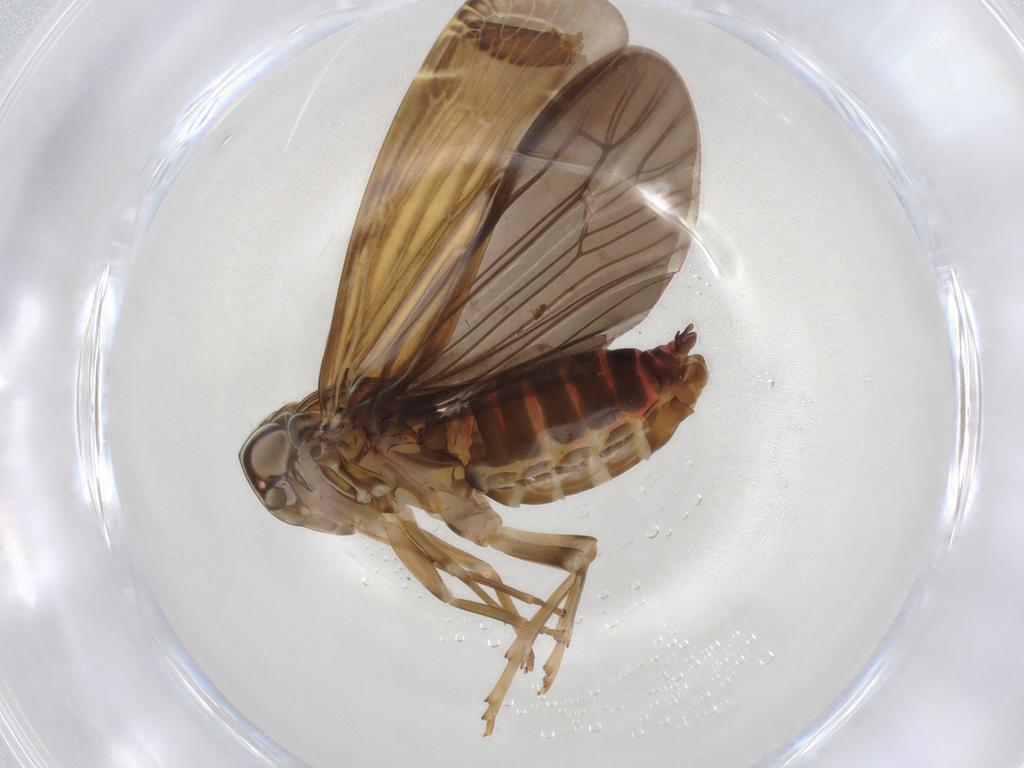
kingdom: Animalia
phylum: Arthropoda
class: Insecta
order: Hemiptera
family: Achilidae
